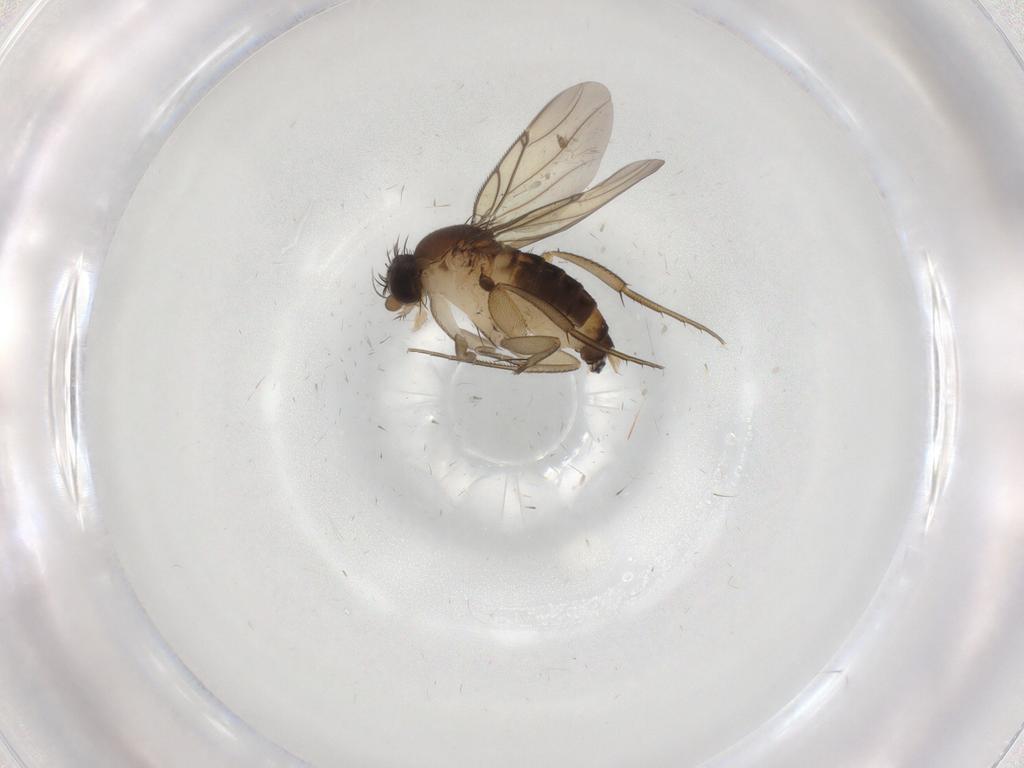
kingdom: Animalia
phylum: Arthropoda
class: Insecta
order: Diptera
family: Phoridae
